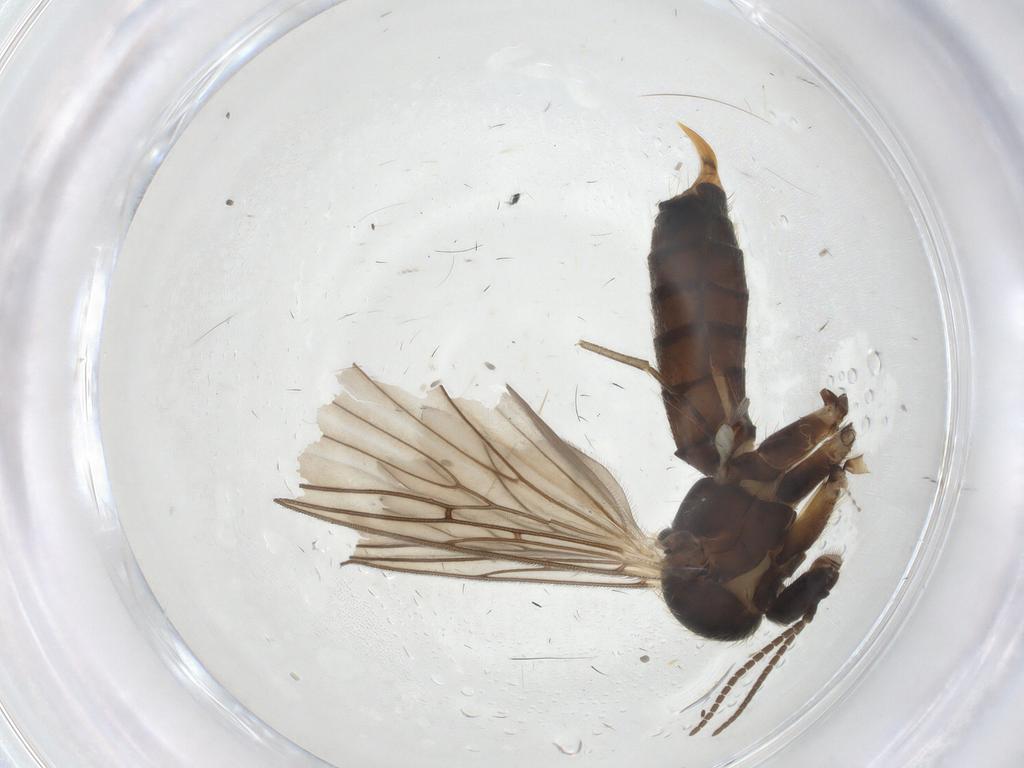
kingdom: Animalia
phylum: Arthropoda
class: Insecta
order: Diptera
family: Mycetophilidae
